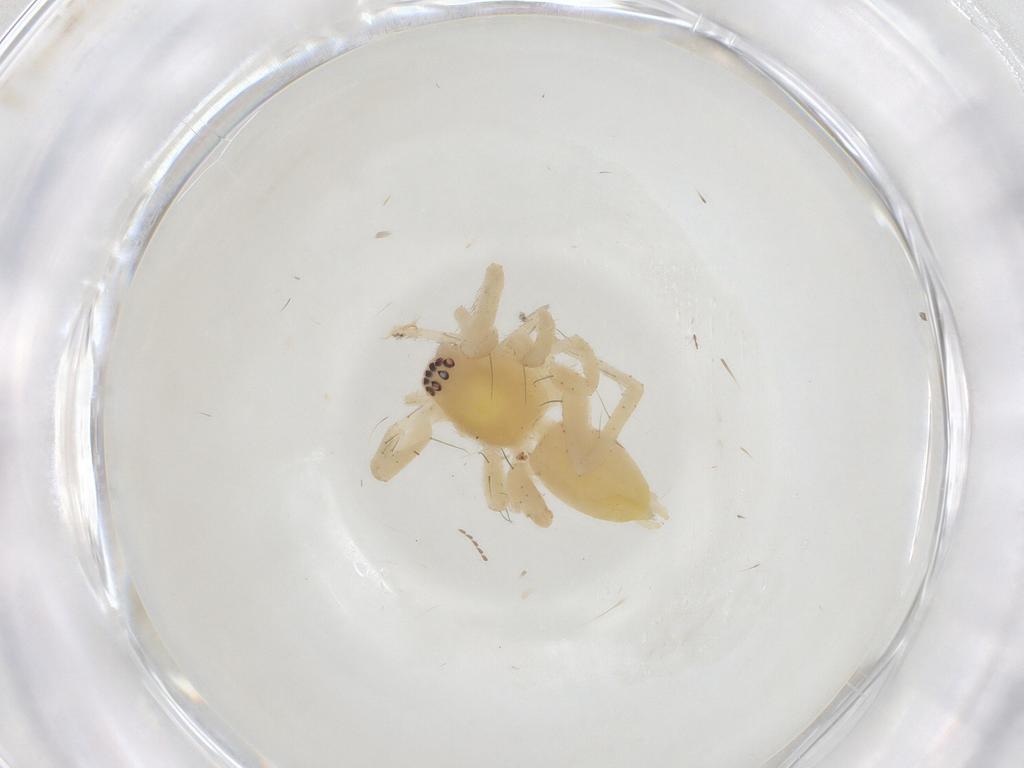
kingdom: Animalia
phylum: Arthropoda
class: Arachnida
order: Araneae
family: Anyphaenidae
